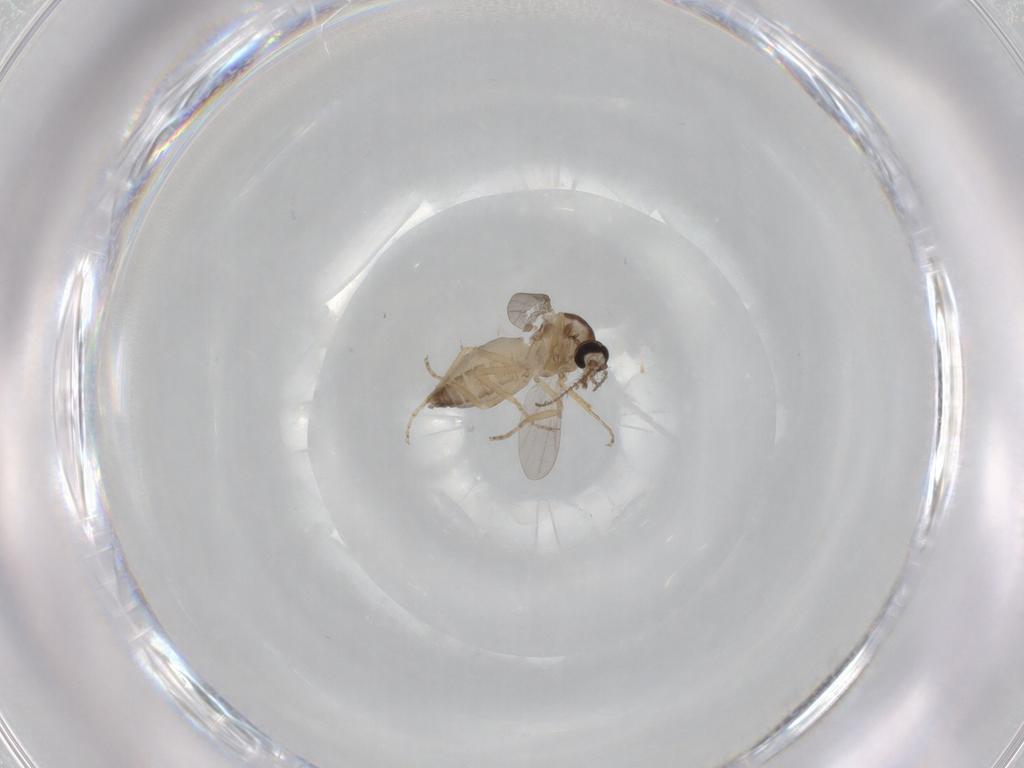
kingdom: Animalia
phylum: Arthropoda
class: Insecta
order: Diptera
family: Ceratopogonidae
